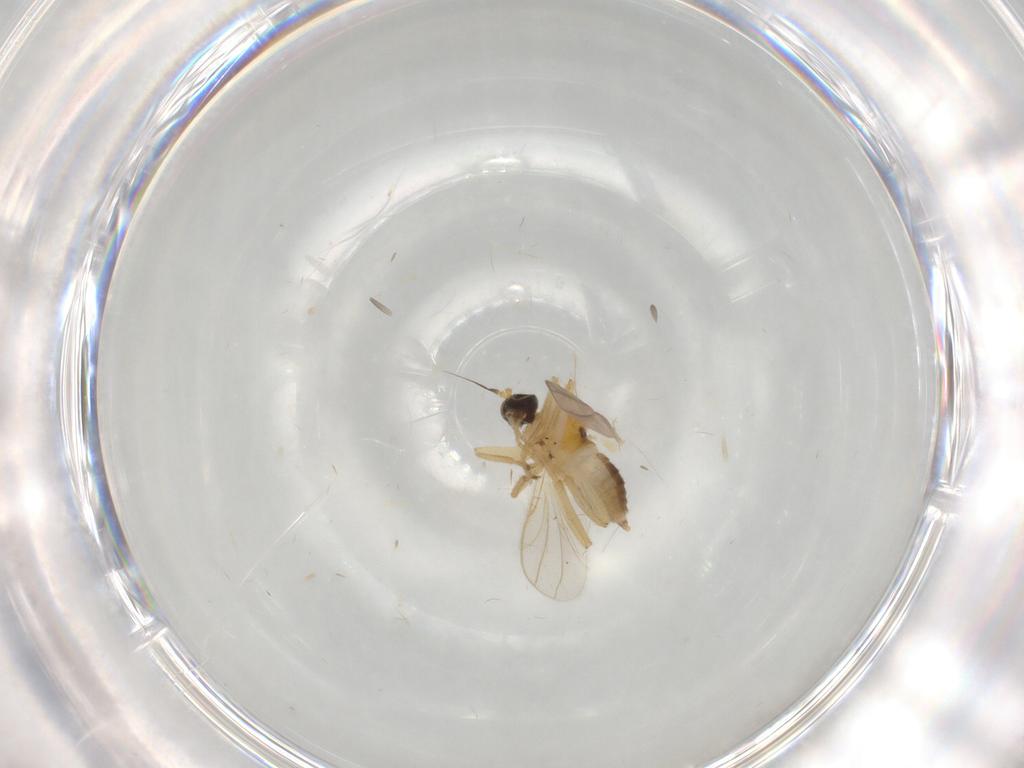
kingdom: Animalia
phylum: Arthropoda
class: Insecta
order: Diptera
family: Hybotidae
